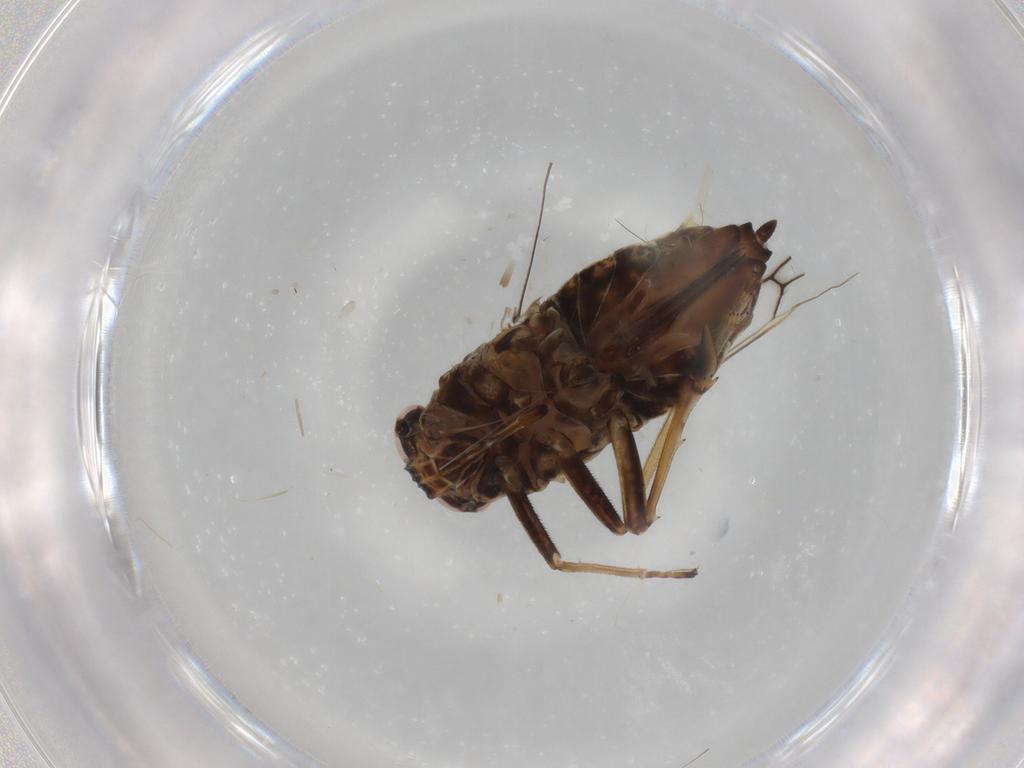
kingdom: Animalia
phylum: Arthropoda
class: Insecta
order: Hemiptera
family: Delphacidae
